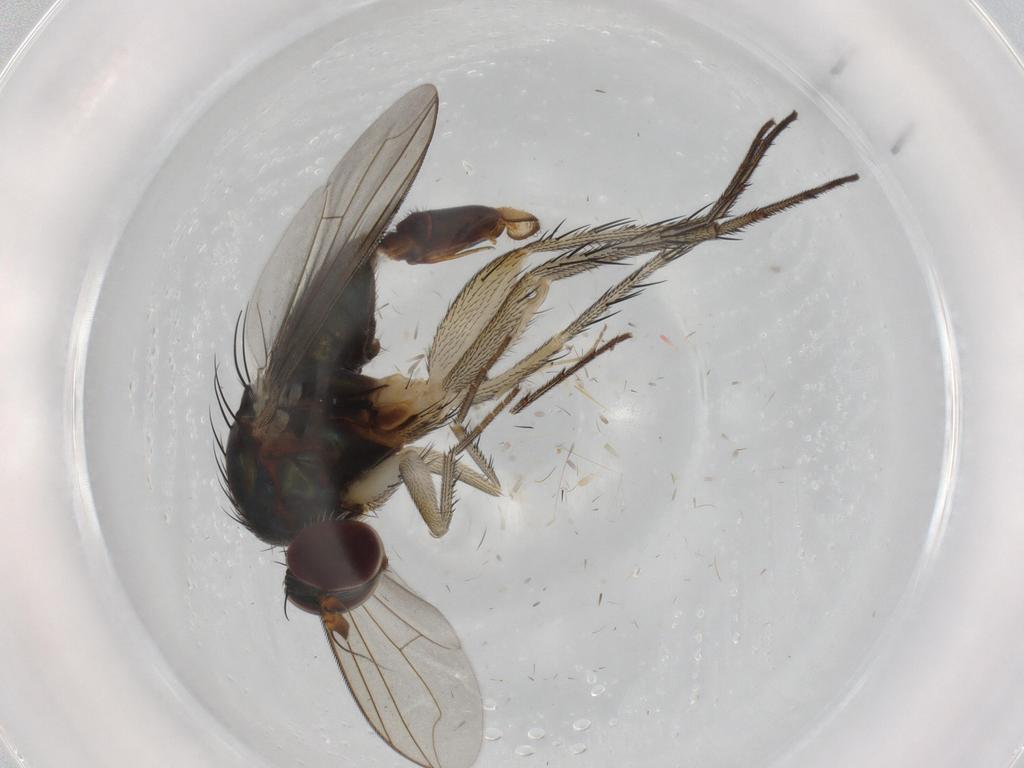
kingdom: Animalia
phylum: Arthropoda
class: Insecta
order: Diptera
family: Dolichopodidae
